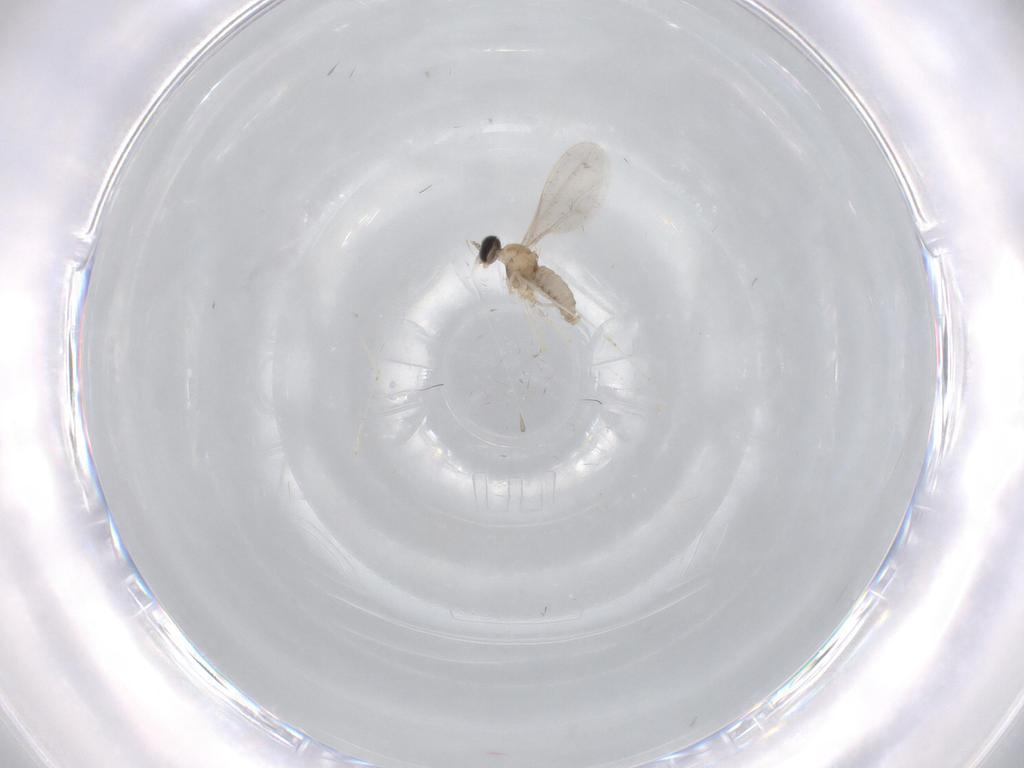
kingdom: Animalia
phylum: Arthropoda
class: Insecta
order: Diptera
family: Cecidomyiidae
